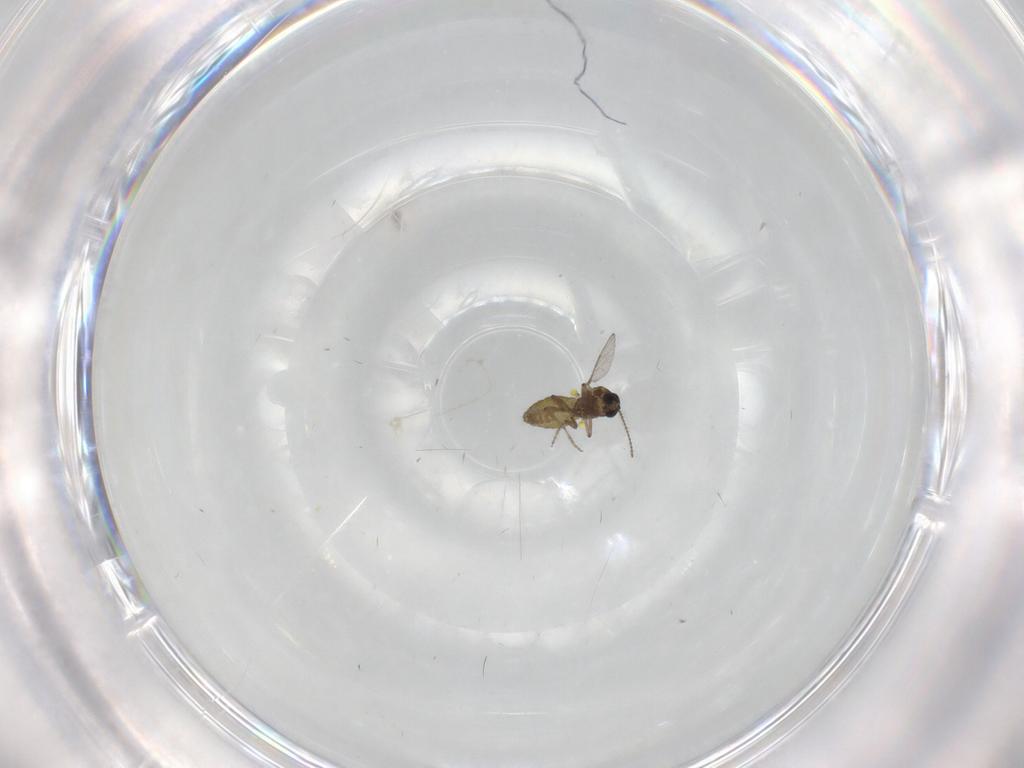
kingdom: Animalia
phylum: Arthropoda
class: Insecta
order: Diptera
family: Ceratopogonidae
